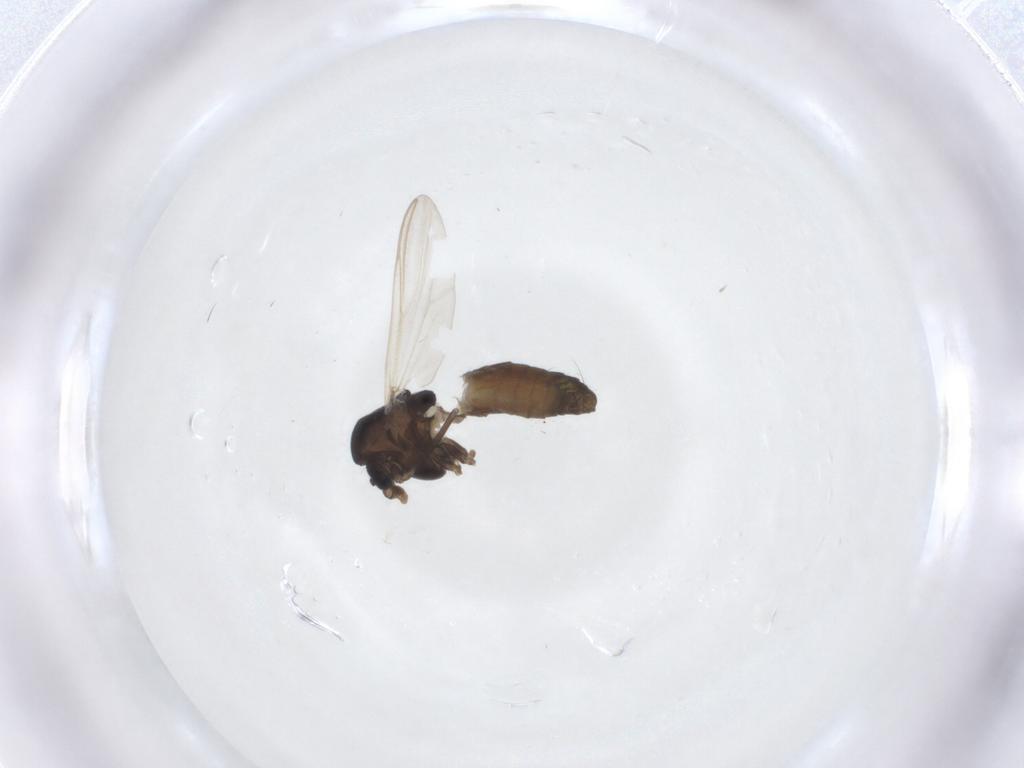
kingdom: Animalia
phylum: Arthropoda
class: Insecta
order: Diptera
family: Chironomidae
